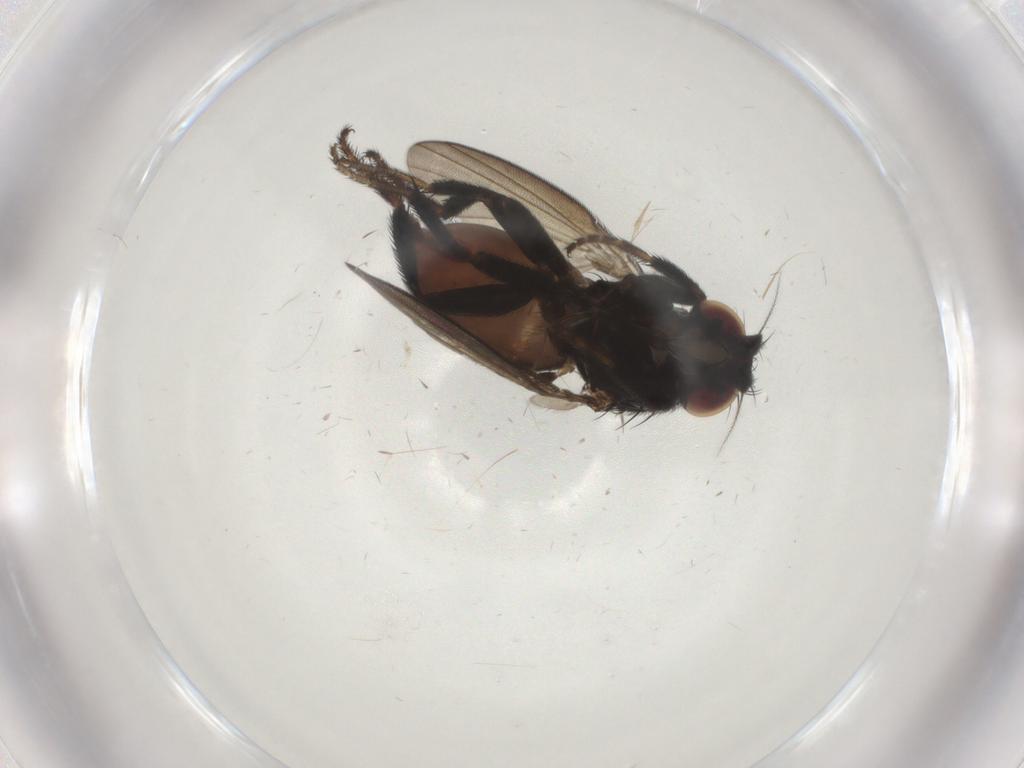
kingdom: Animalia
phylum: Arthropoda
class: Insecta
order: Diptera
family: Milichiidae
